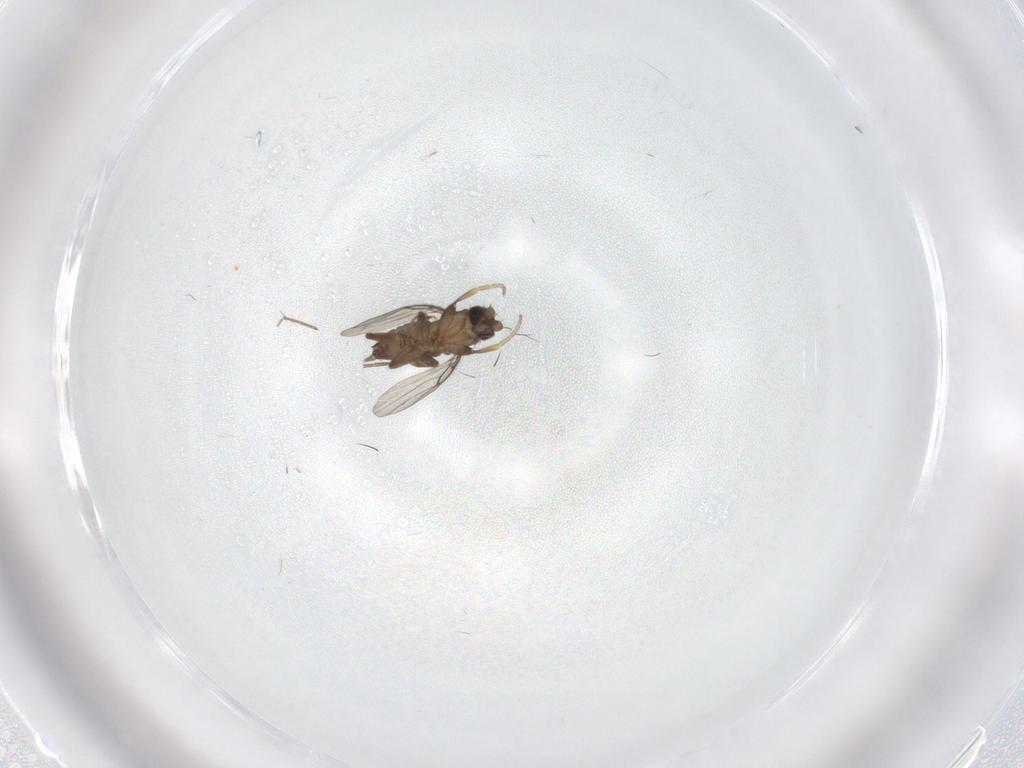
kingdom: Animalia
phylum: Arthropoda
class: Insecta
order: Diptera
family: Phoridae
